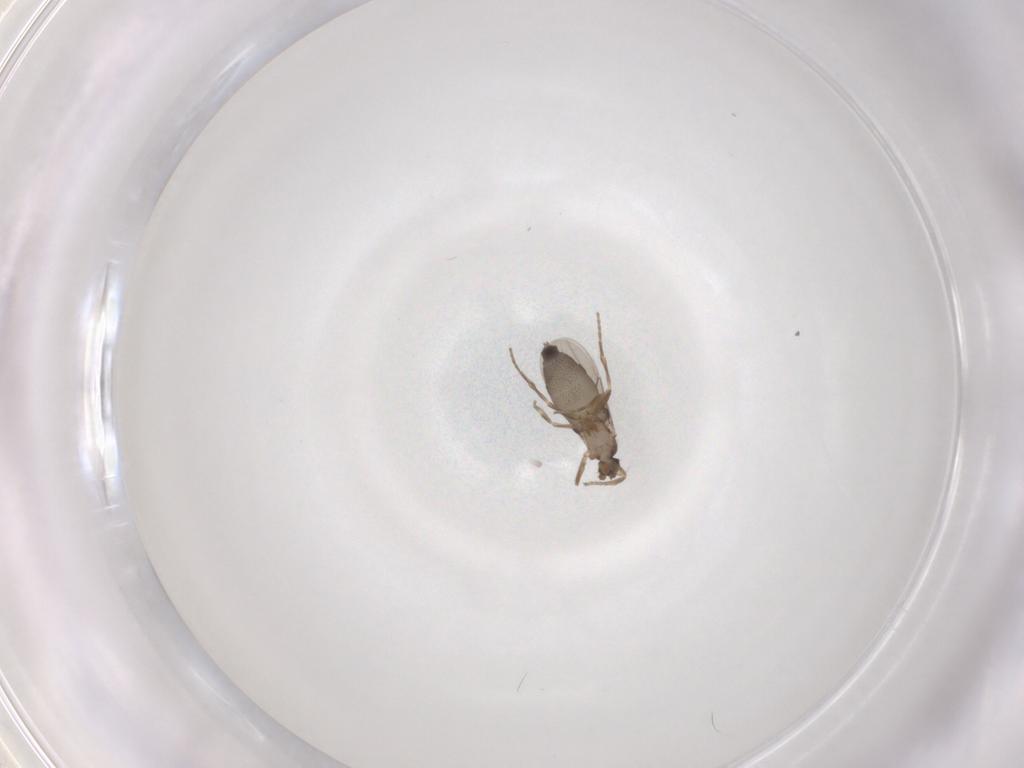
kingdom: Animalia
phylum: Arthropoda
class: Insecta
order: Diptera
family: Phoridae
